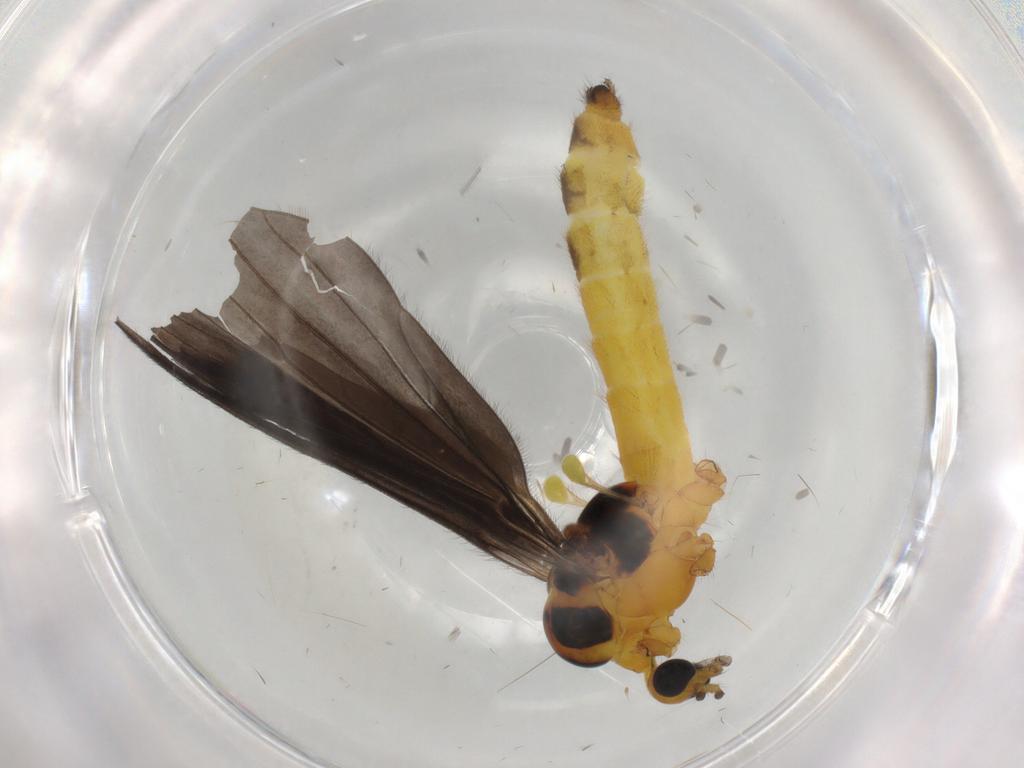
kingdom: Animalia
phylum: Arthropoda
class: Insecta
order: Diptera
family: Limoniidae
